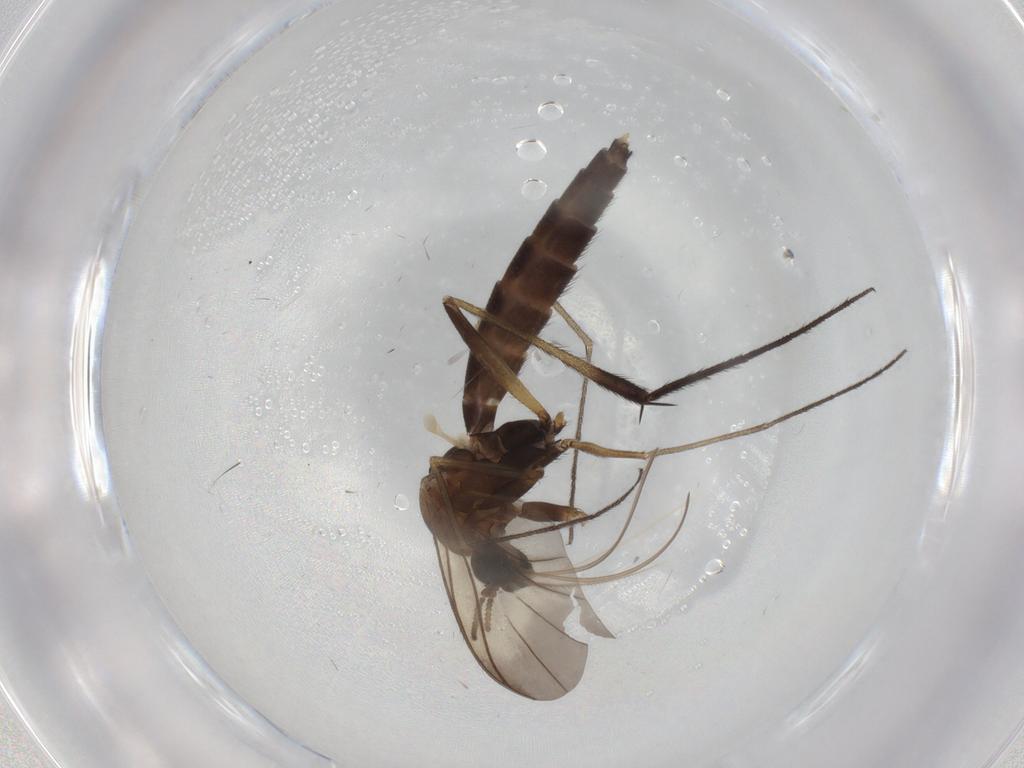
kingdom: Animalia
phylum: Arthropoda
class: Insecta
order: Diptera
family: Keroplatidae
